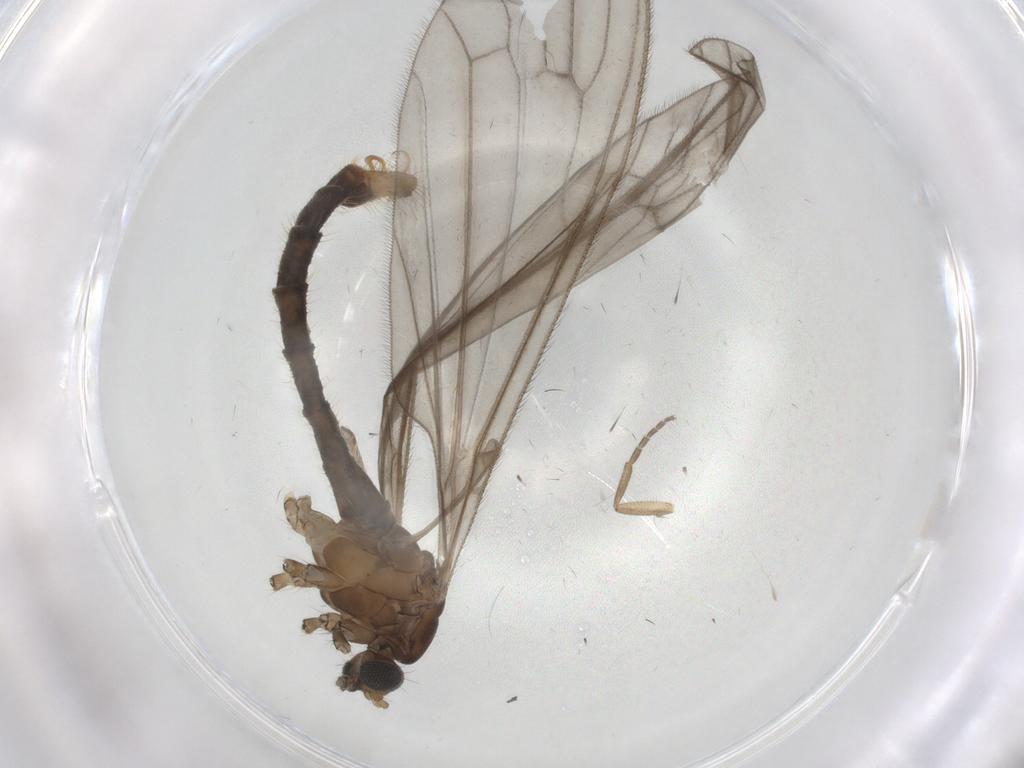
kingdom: Animalia
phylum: Arthropoda
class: Insecta
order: Diptera
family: Limoniidae
